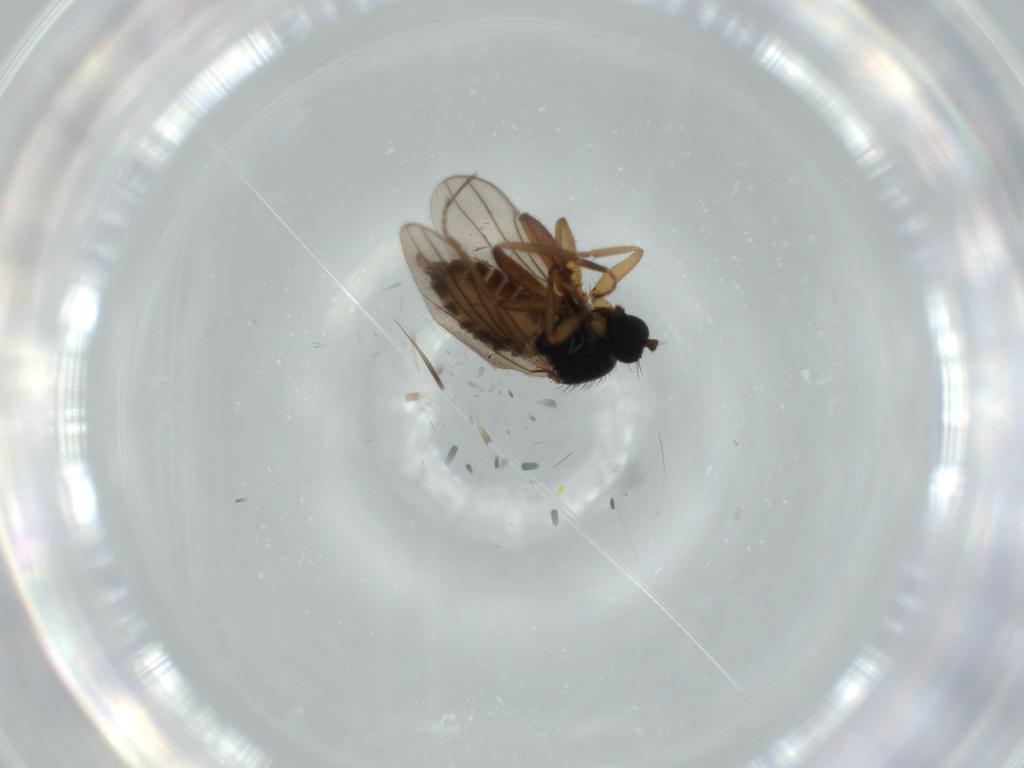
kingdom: Animalia
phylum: Arthropoda
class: Insecta
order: Diptera
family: Hybotidae
